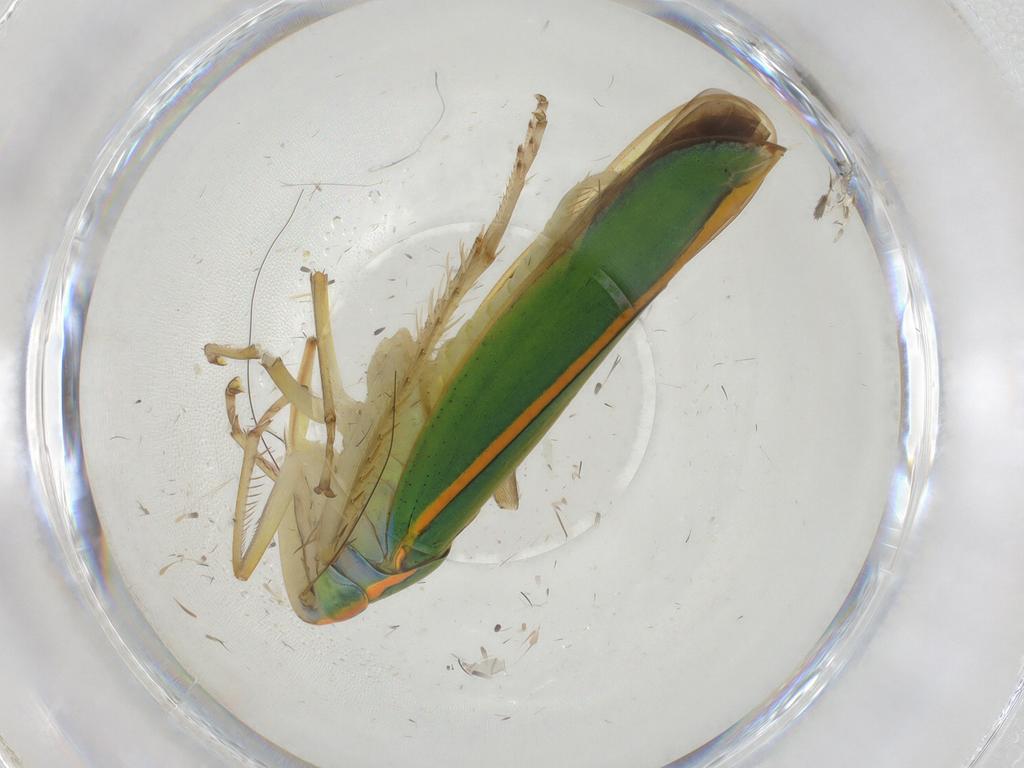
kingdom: Animalia
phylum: Arthropoda
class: Insecta
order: Hemiptera
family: Cicadellidae
